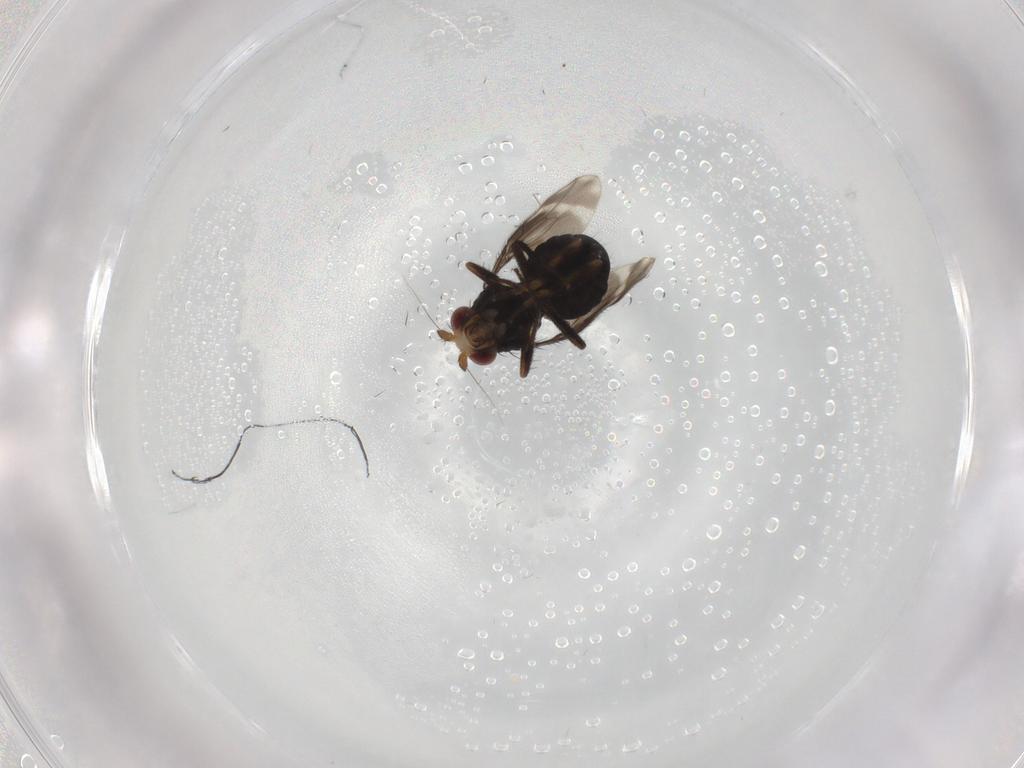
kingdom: Animalia
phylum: Arthropoda
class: Insecta
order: Diptera
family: Sphaeroceridae
